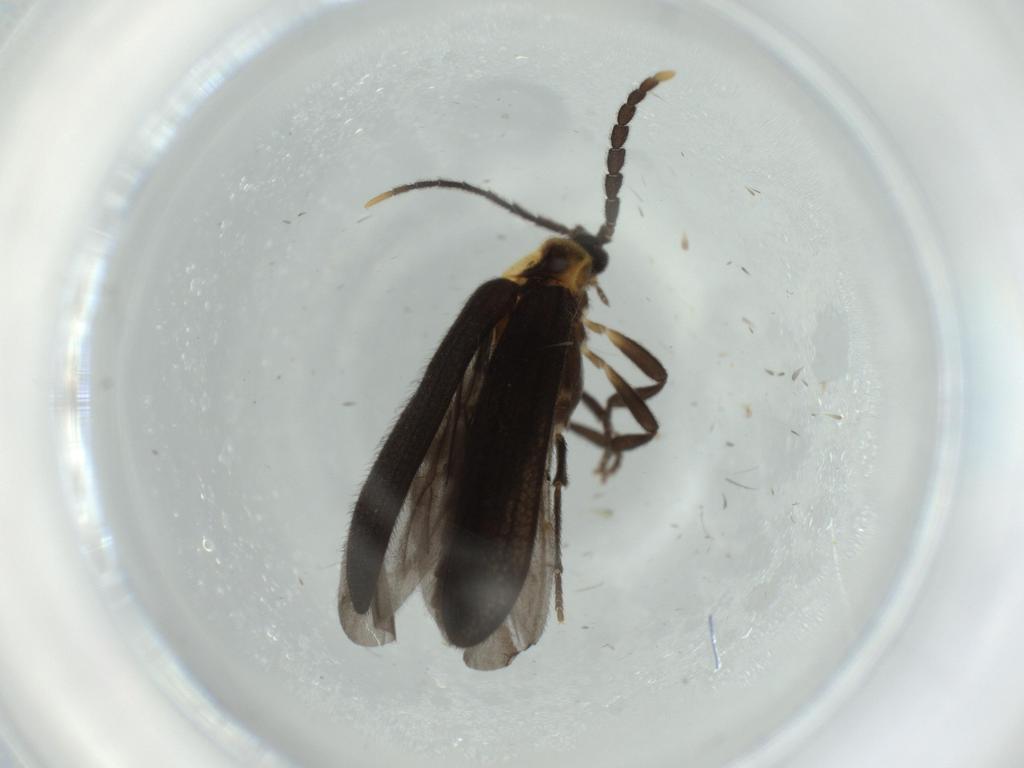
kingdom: Animalia
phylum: Arthropoda
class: Insecta
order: Coleoptera
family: Lycidae
